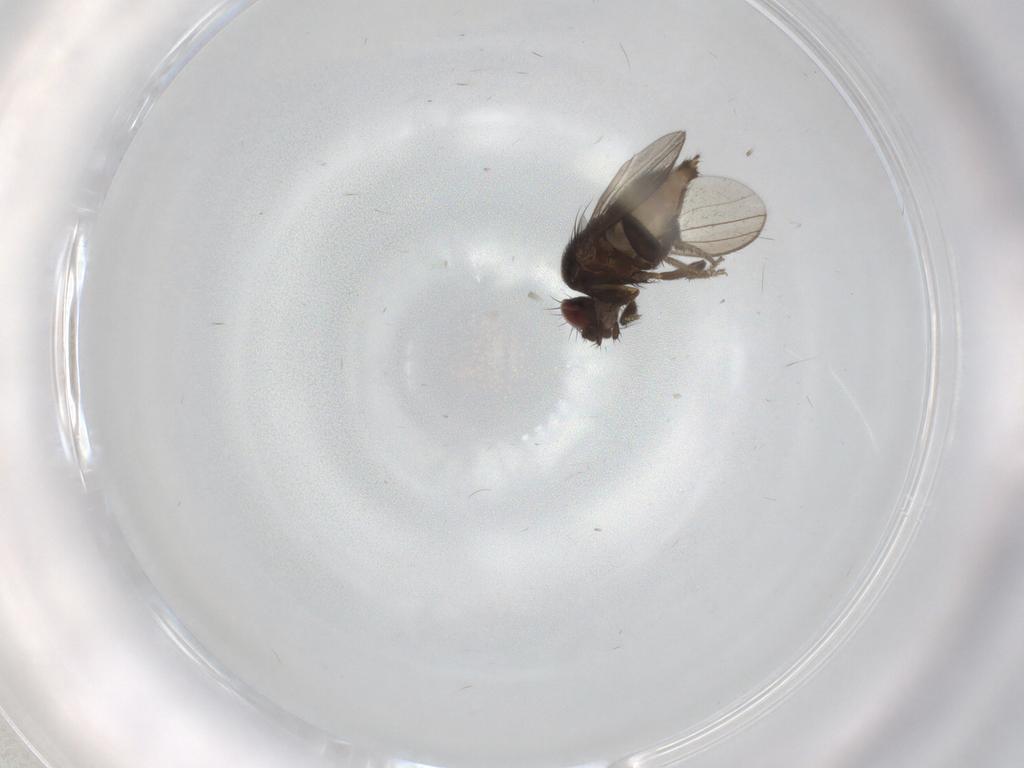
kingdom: Animalia
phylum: Arthropoda
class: Insecta
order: Diptera
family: Milichiidae
